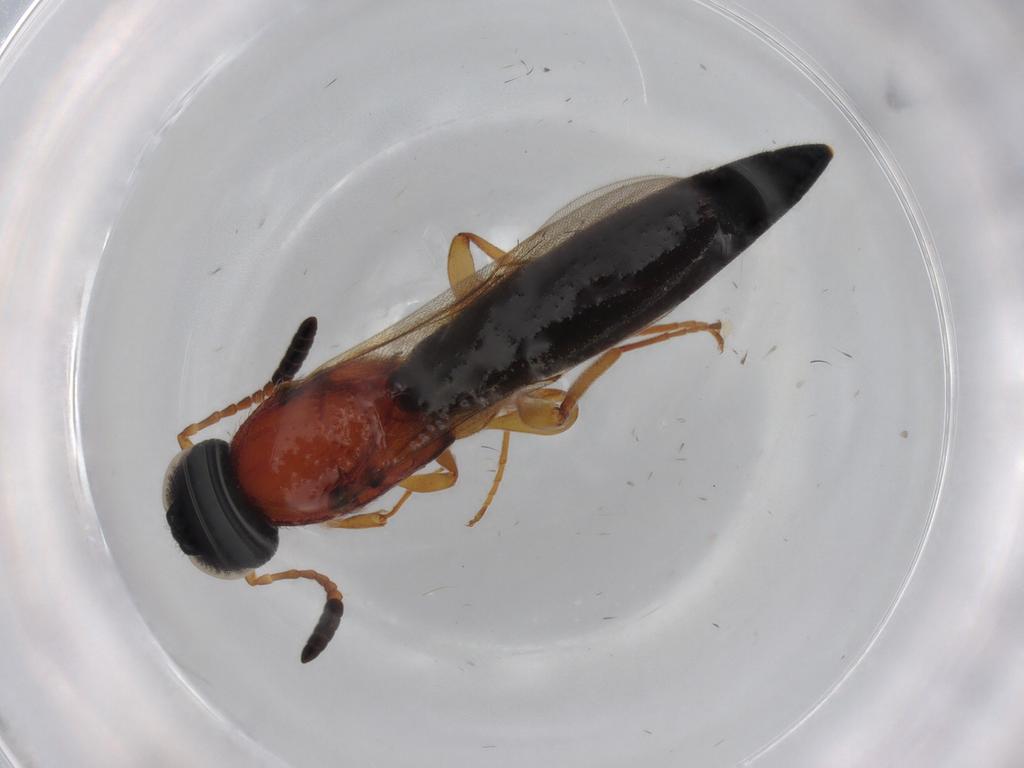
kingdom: Animalia
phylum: Arthropoda
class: Insecta
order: Hymenoptera
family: Scelionidae
